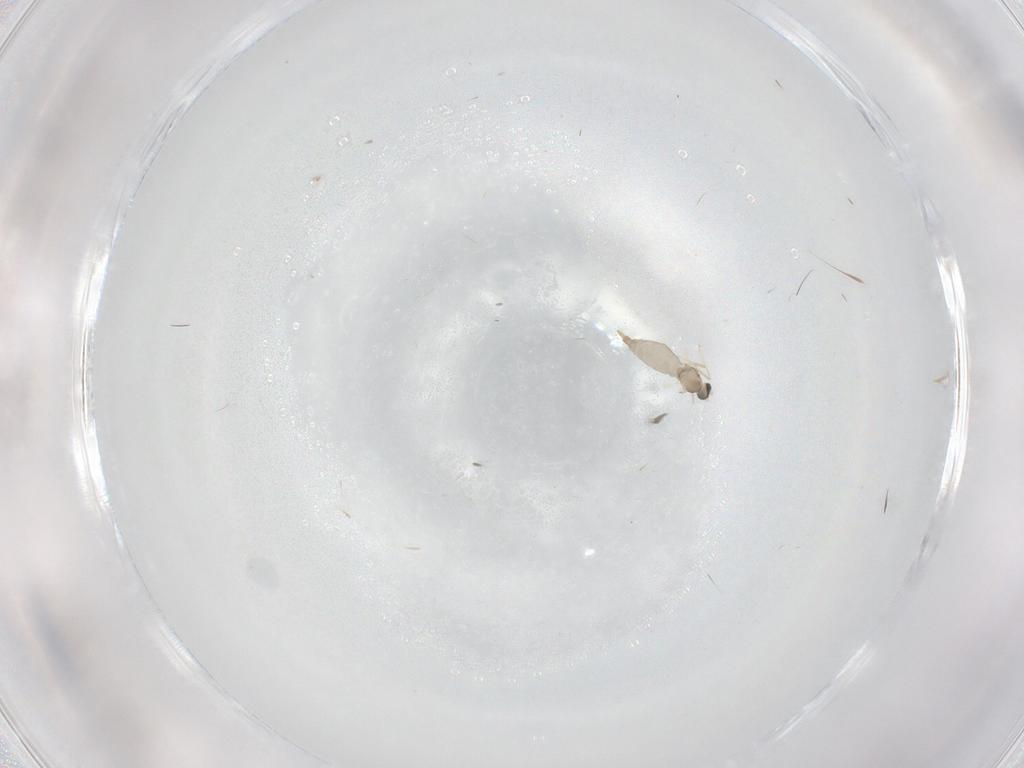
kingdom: Animalia
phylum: Arthropoda
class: Insecta
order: Diptera
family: Cecidomyiidae
